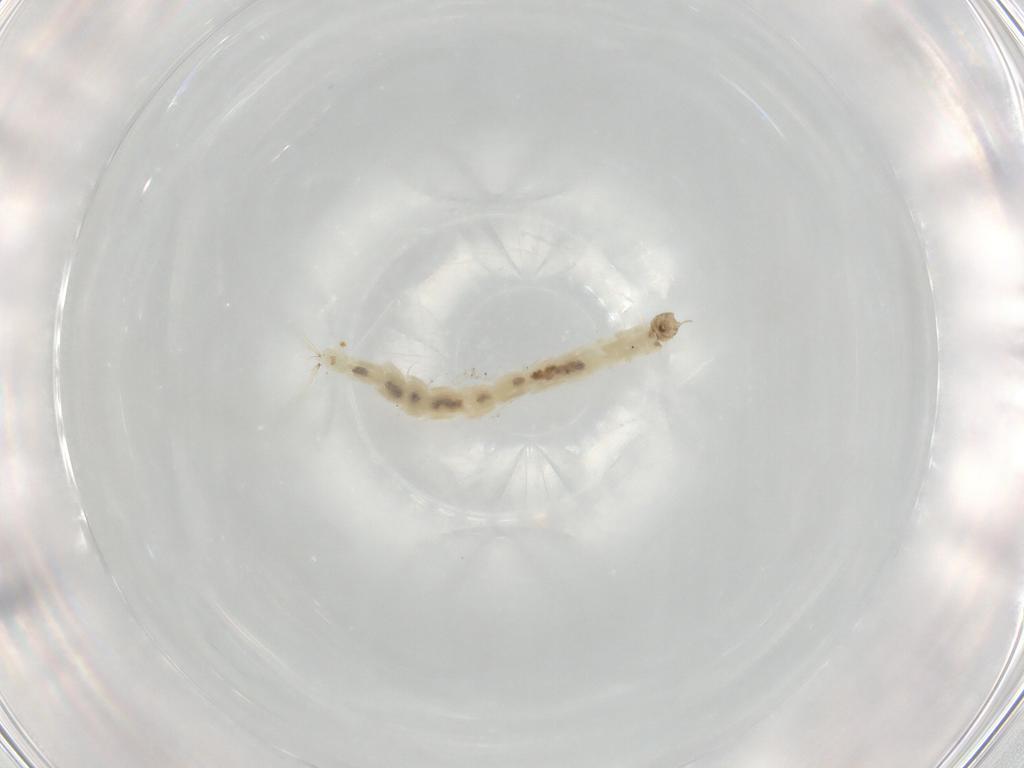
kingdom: Animalia
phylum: Arthropoda
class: Insecta
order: Diptera
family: Chironomidae
